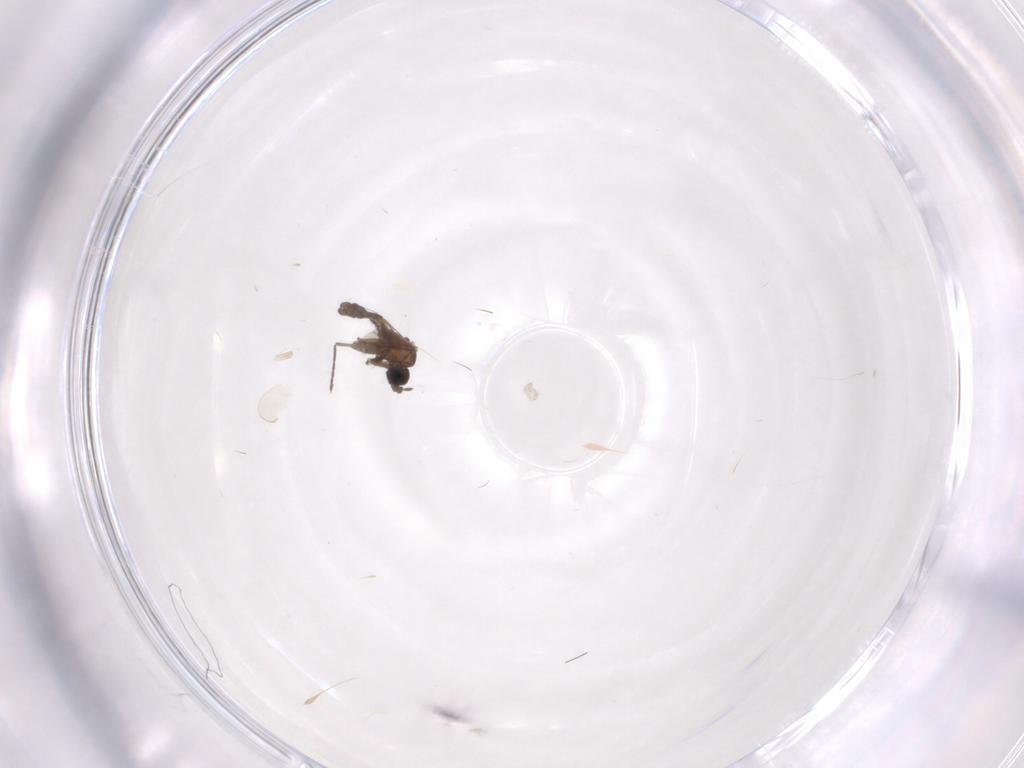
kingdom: Animalia
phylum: Arthropoda
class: Insecta
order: Diptera
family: Sciaridae
